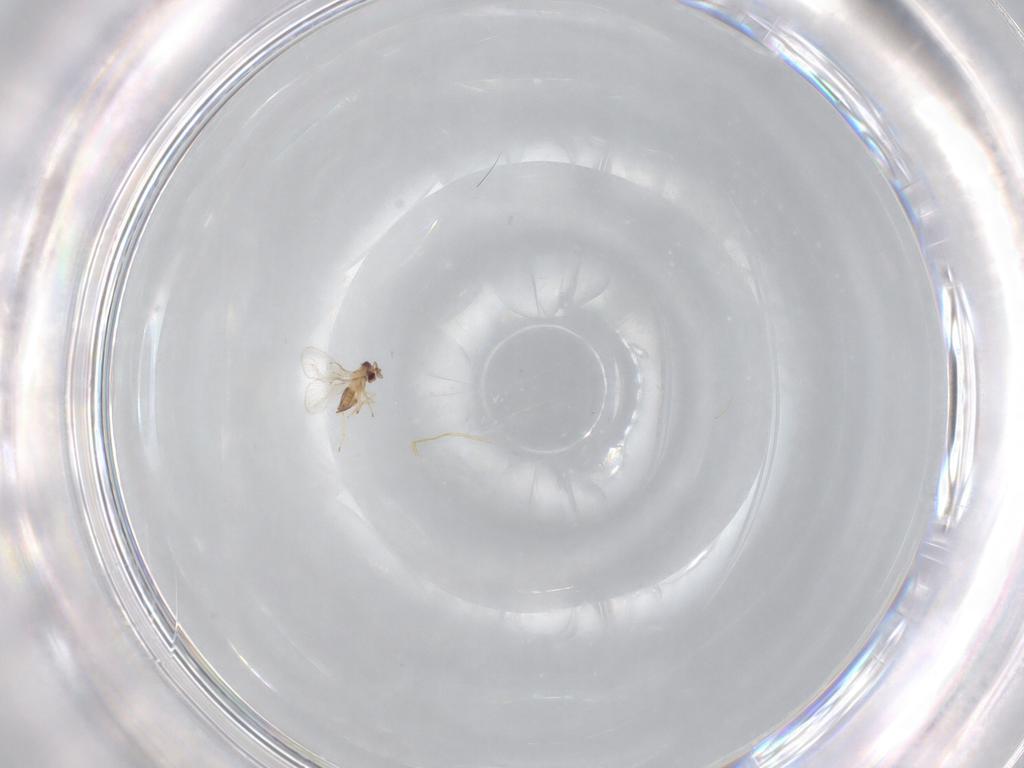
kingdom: Animalia
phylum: Arthropoda
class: Insecta
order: Hymenoptera
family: Trichogrammatidae
